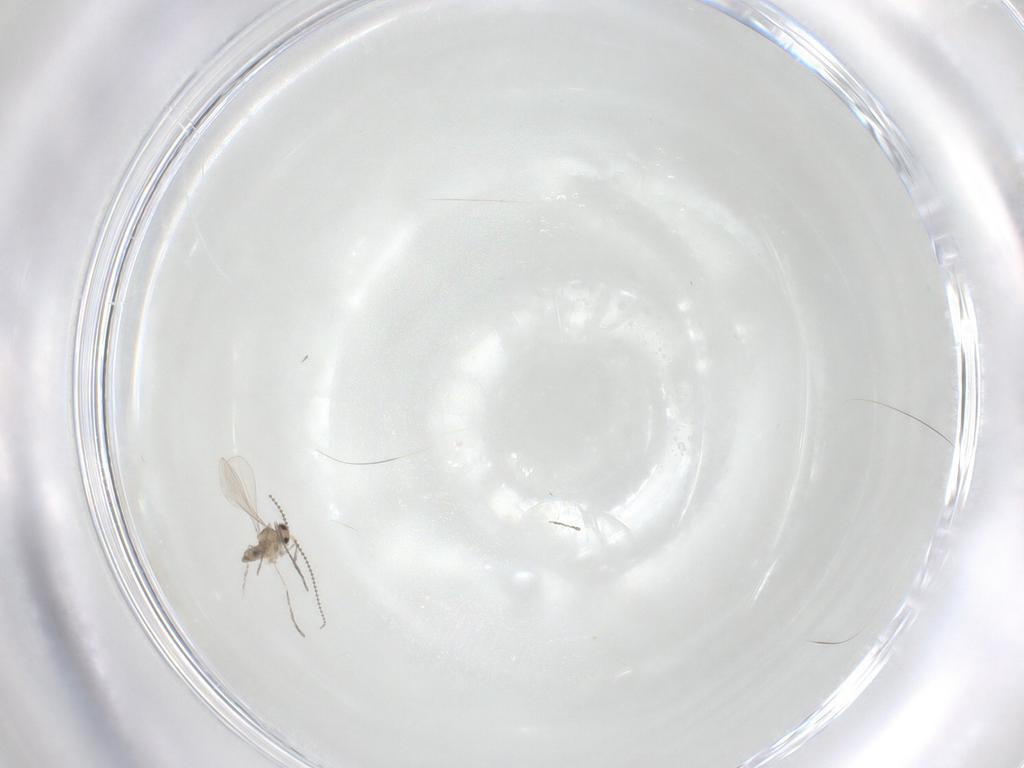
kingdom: Animalia
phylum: Arthropoda
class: Insecta
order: Diptera
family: Cecidomyiidae
